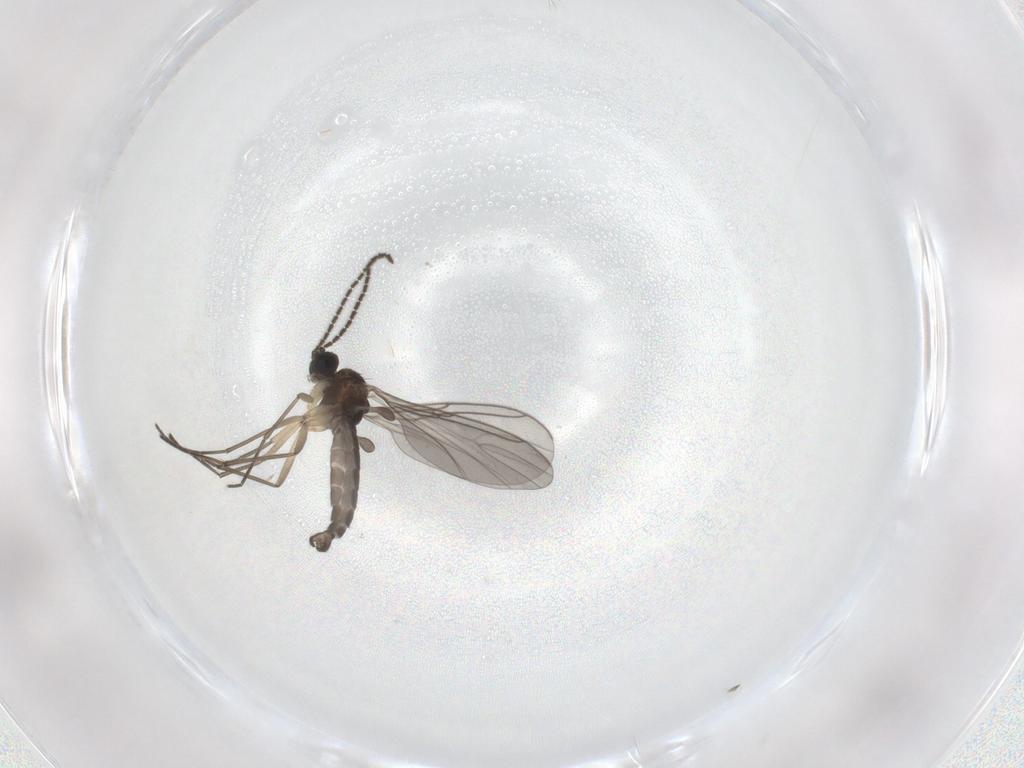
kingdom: Animalia
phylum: Arthropoda
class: Insecta
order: Diptera
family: Sciaridae
